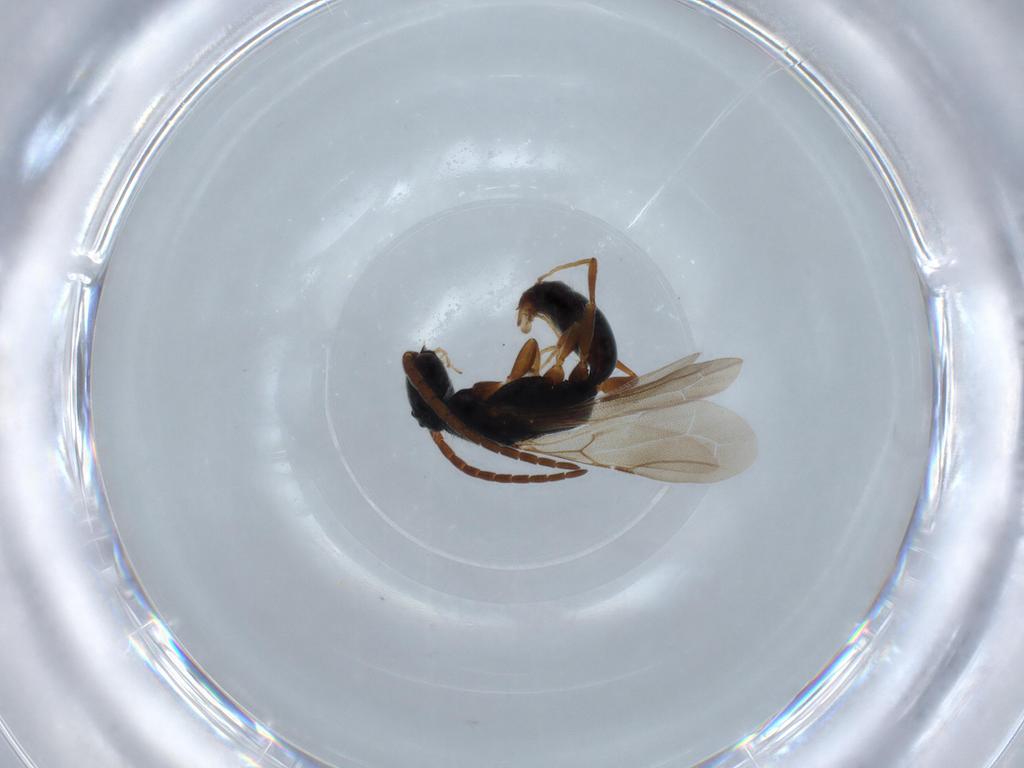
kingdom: Animalia
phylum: Arthropoda
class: Insecta
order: Hymenoptera
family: Bethylidae
